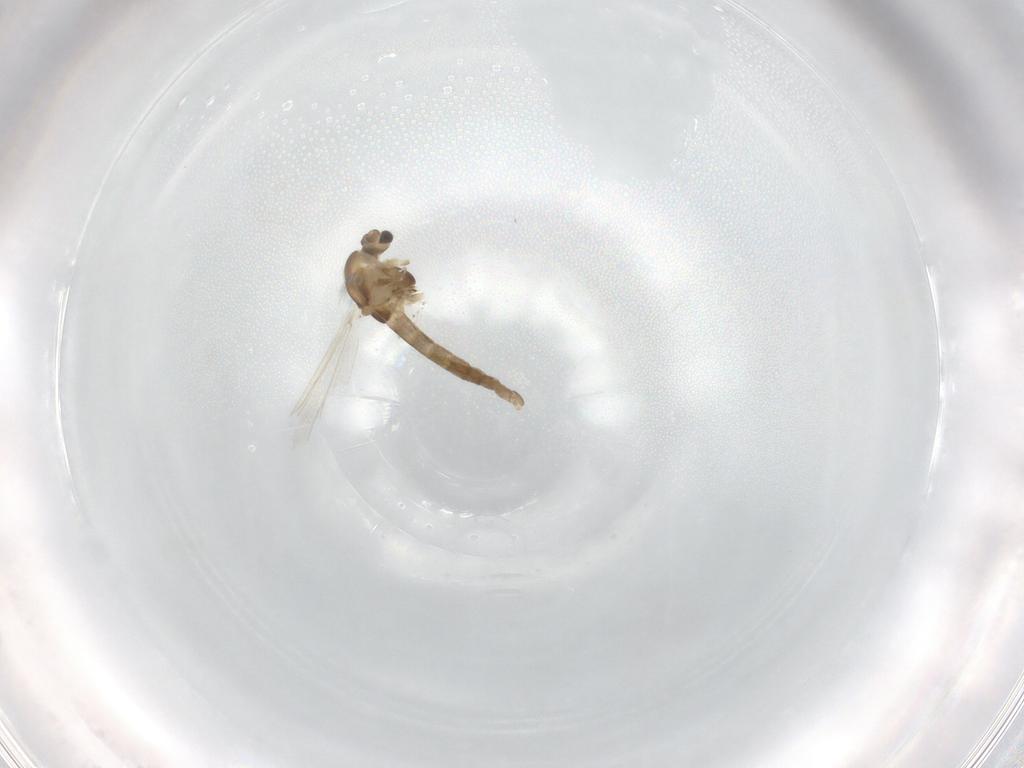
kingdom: Animalia
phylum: Arthropoda
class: Insecta
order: Diptera
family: Chironomidae
